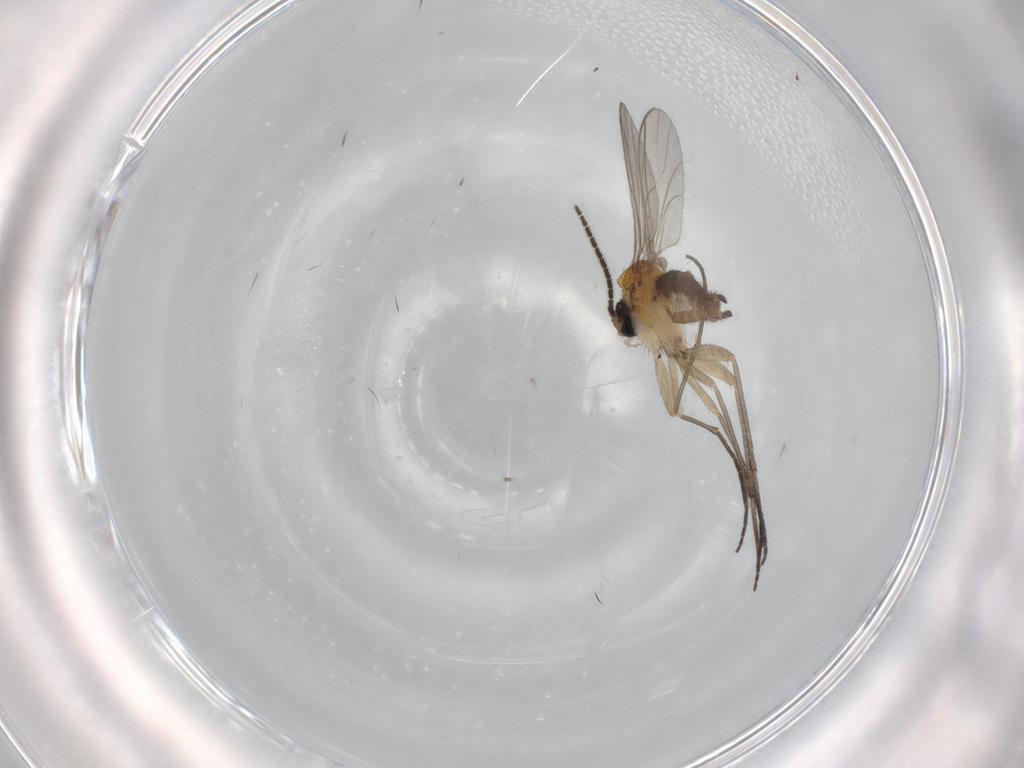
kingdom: Animalia
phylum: Arthropoda
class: Insecta
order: Diptera
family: Sciaridae
